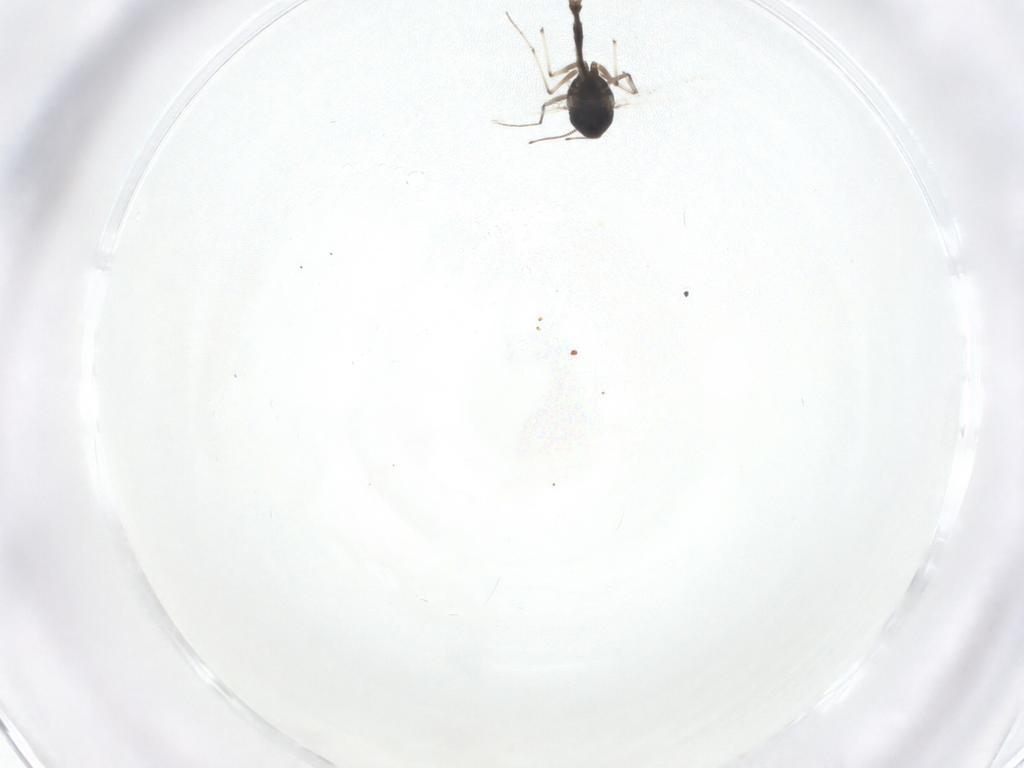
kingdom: Animalia
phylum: Arthropoda
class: Insecta
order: Diptera
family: Chironomidae
